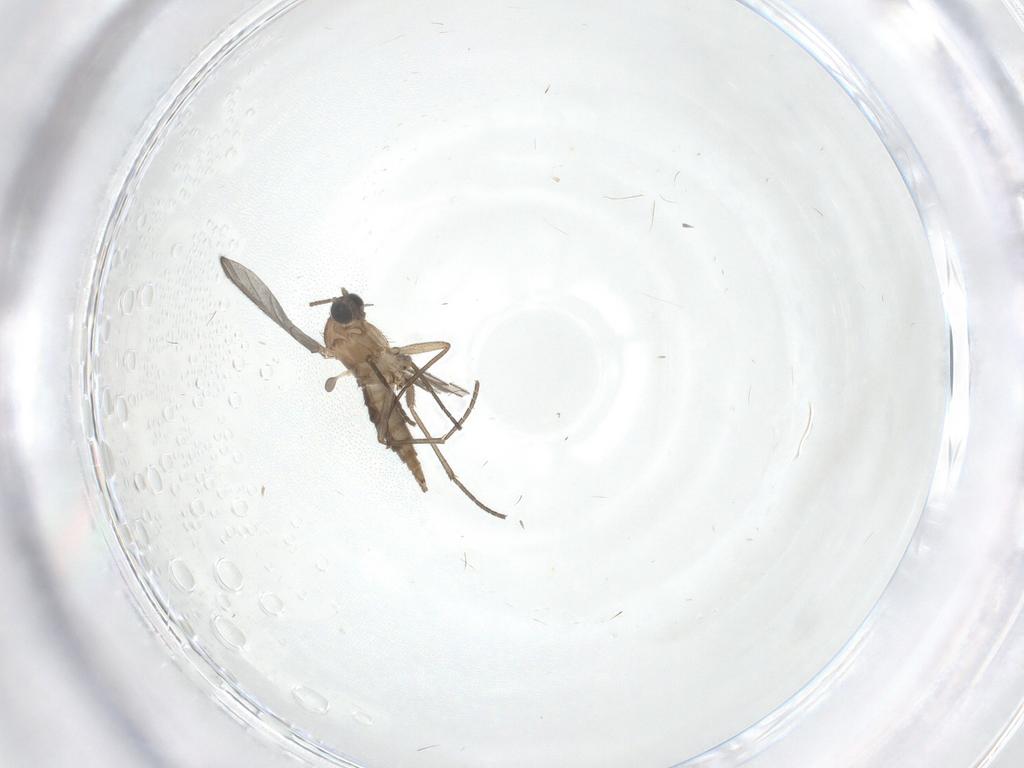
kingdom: Animalia
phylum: Arthropoda
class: Insecta
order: Diptera
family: Sciaridae
